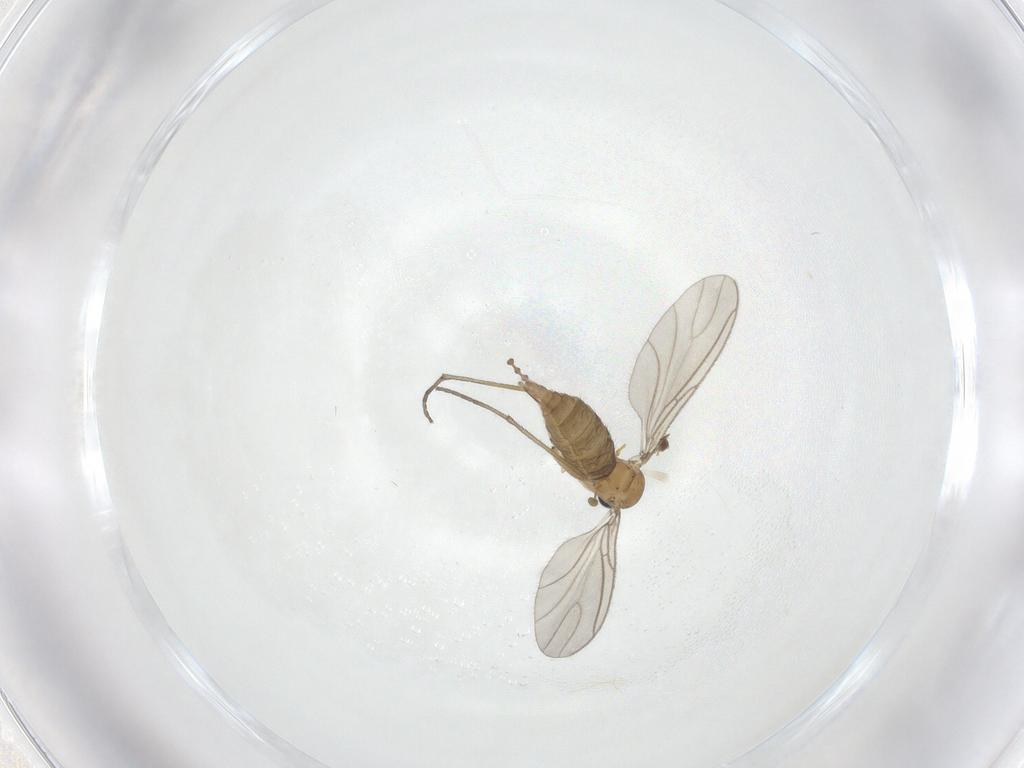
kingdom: Animalia
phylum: Arthropoda
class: Insecta
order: Diptera
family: Sciaridae
